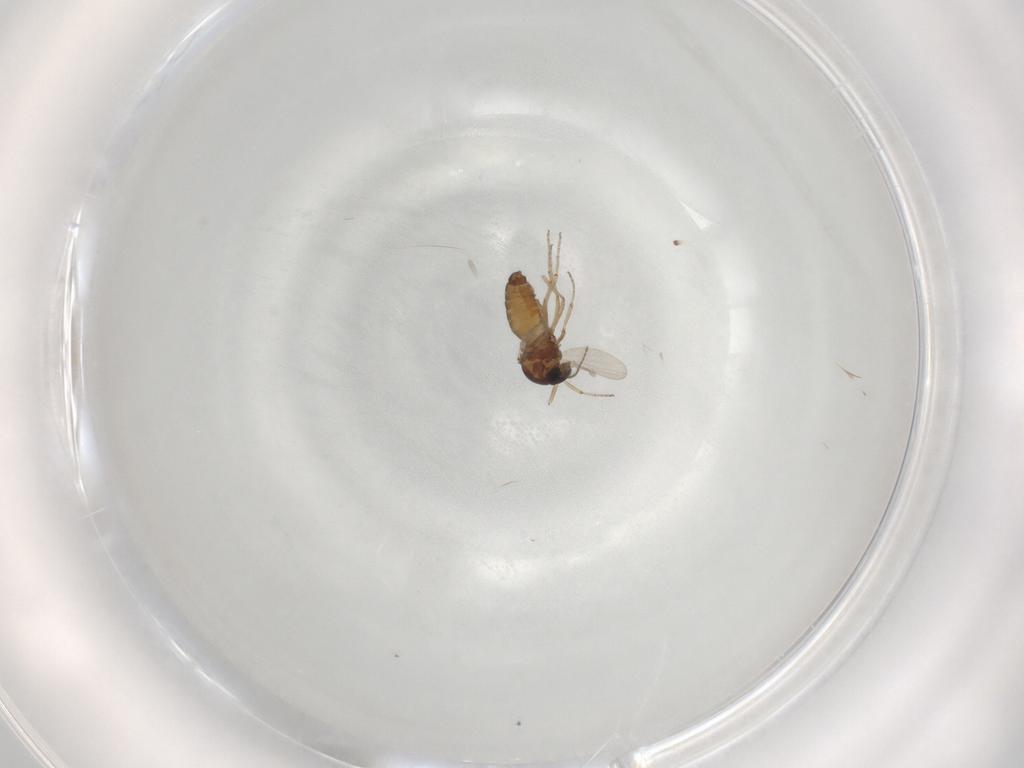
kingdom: Animalia
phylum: Arthropoda
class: Insecta
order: Diptera
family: Ceratopogonidae
